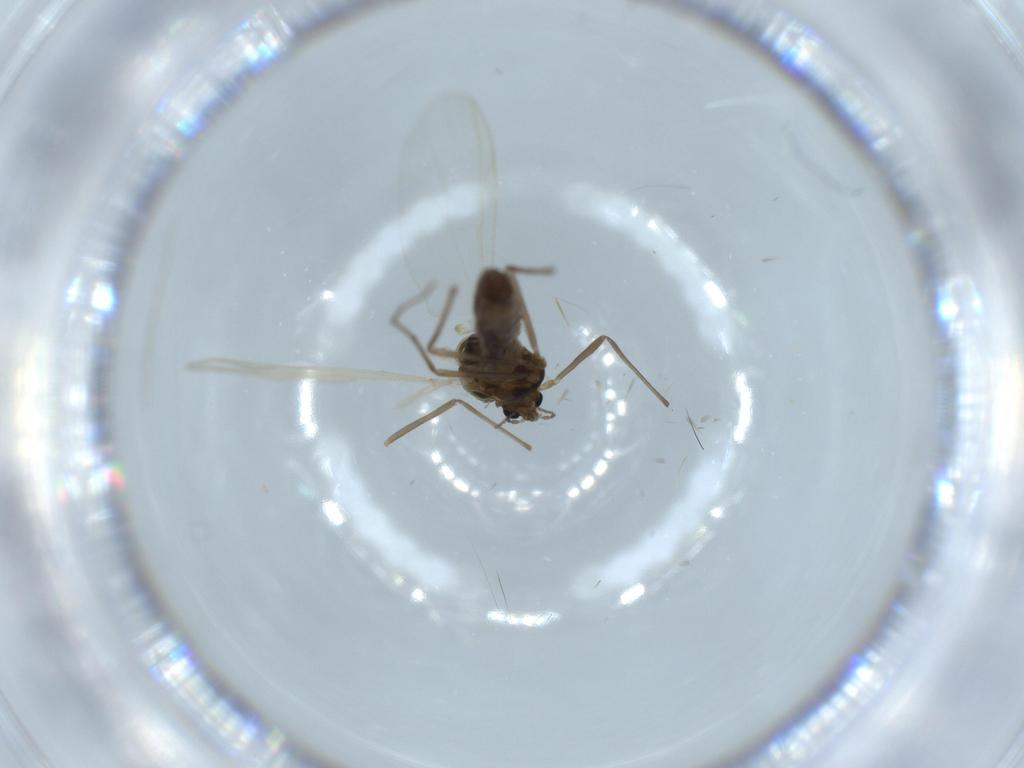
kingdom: Animalia
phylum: Arthropoda
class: Insecta
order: Diptera
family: Chironomidae
